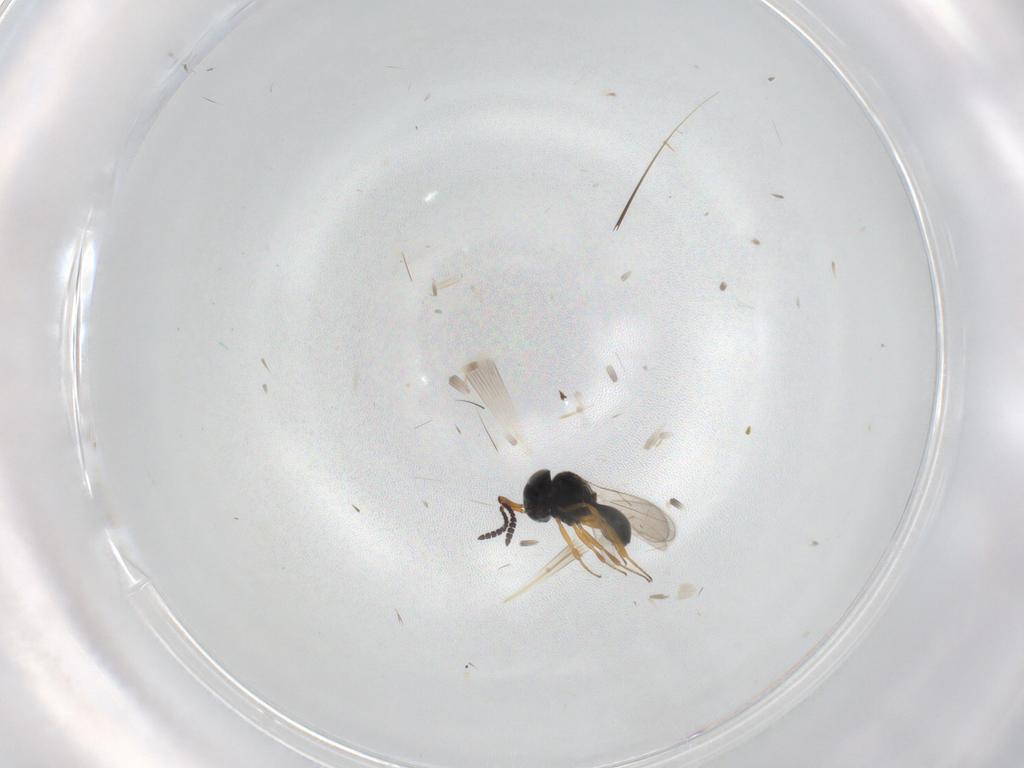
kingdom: Animalia
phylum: Arthropoda
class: Insecta
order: Hymenoptera
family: Scelionidae
